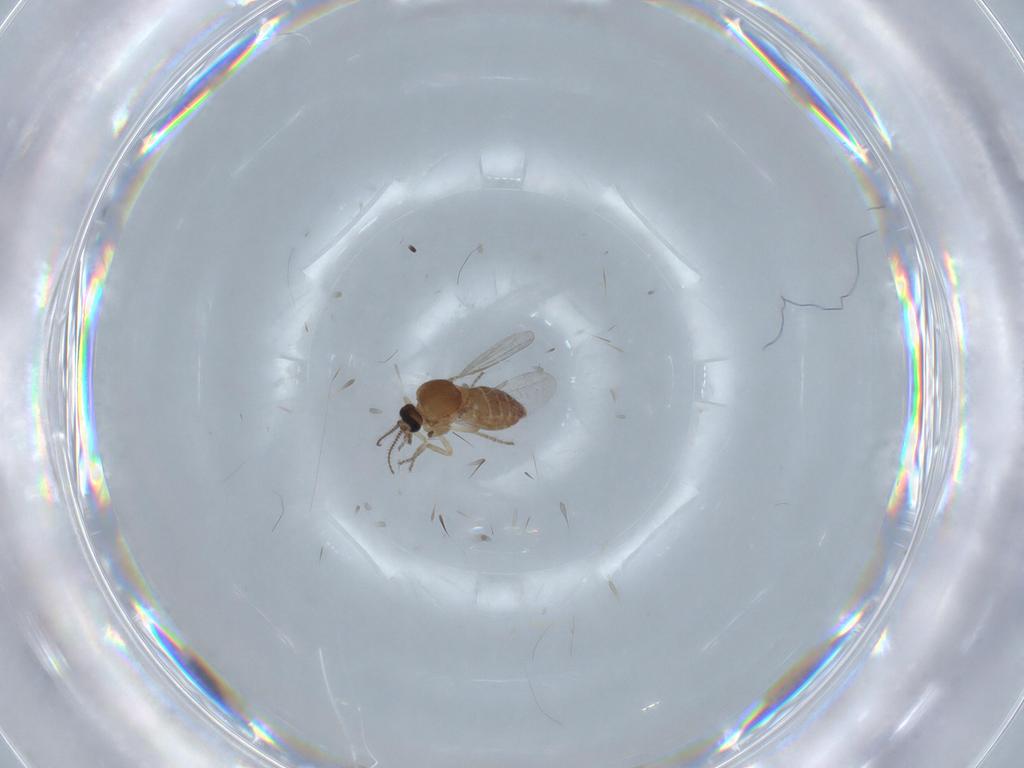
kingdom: Animalia
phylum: Arthropoda
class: Insecta
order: Diptera
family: Ceratopogonidae
